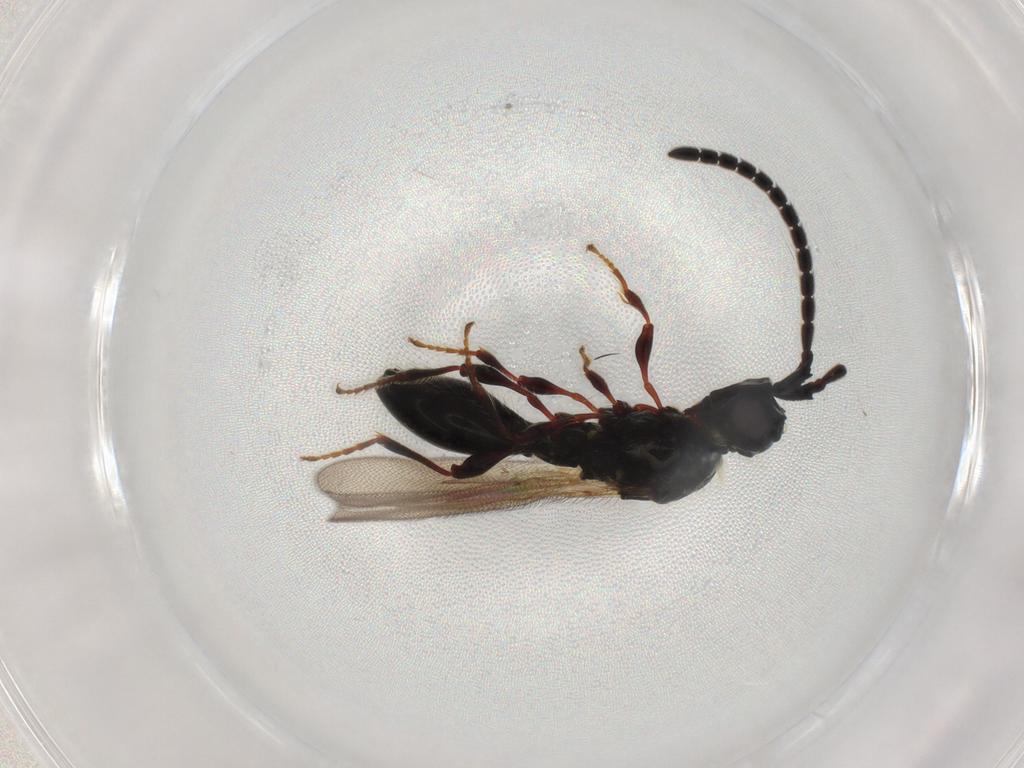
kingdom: Animalia
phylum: Arthropoda
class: Insecta
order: Hymenoptera
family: Diapriidae
